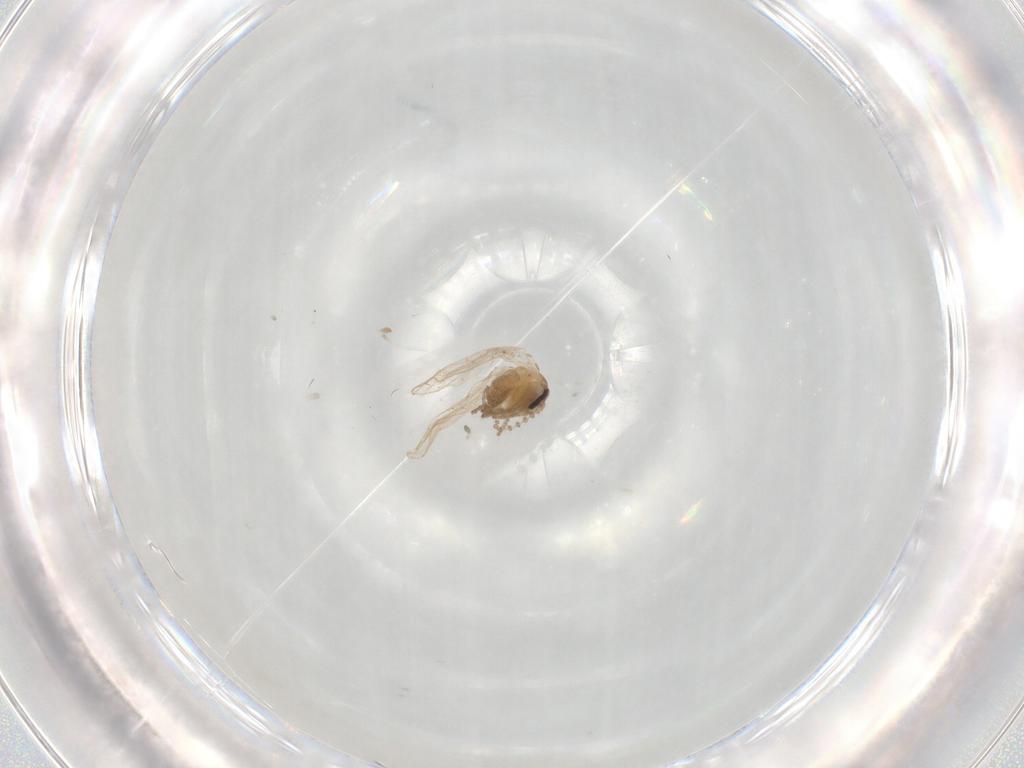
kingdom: Animalia
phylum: Arthropoda
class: Insecta
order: Diptera
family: Psychodidae
